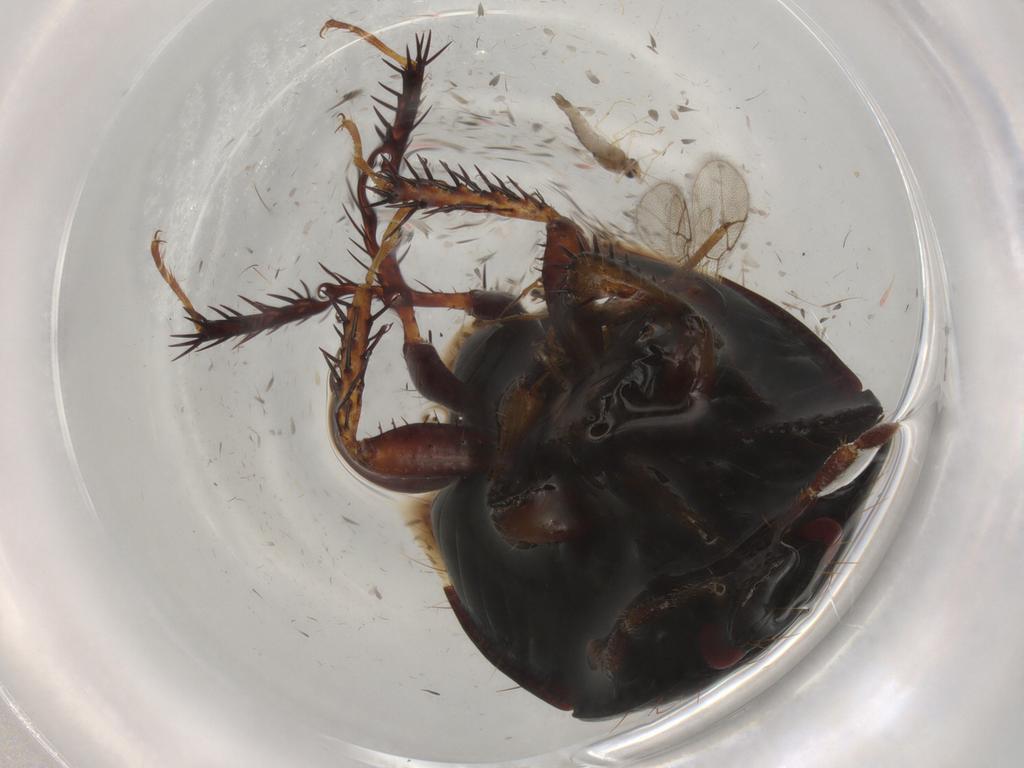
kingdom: Animalia
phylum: Arthropoda
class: Insecta
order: Hemiptera
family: Cydnidae
